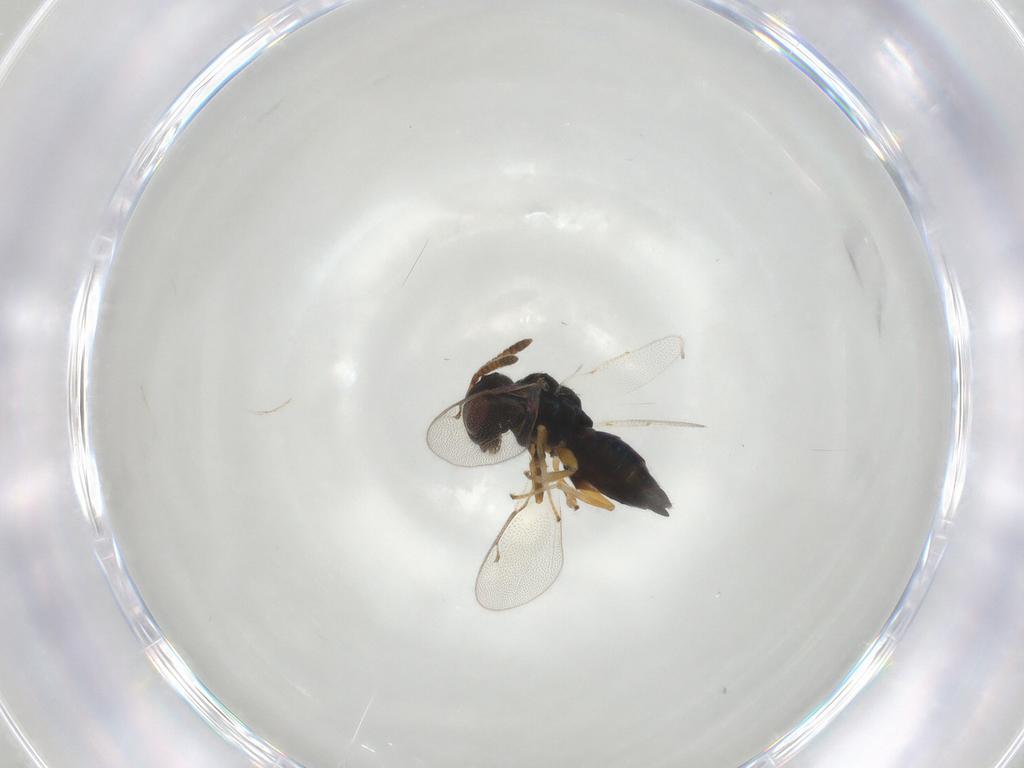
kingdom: Animalia
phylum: Arthropoda
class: Insecta
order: Hymenoptera
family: Pteromalidae
